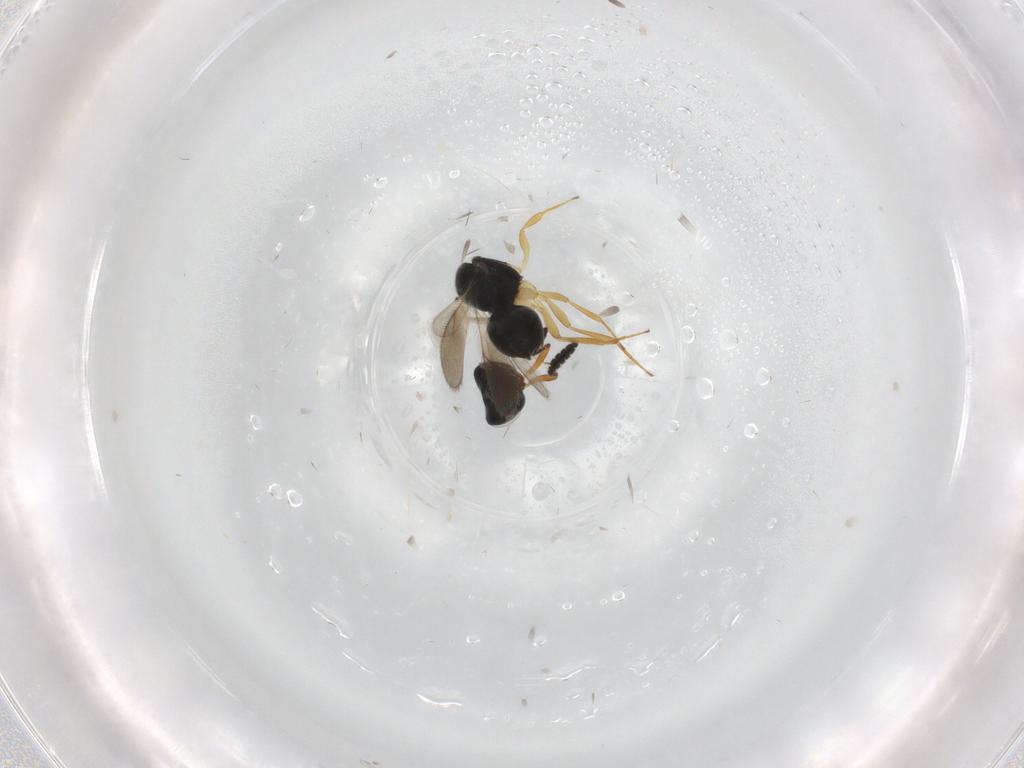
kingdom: Animalia
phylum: Arthropoda
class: Insecta
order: Hymenoptera
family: Scelionidae
